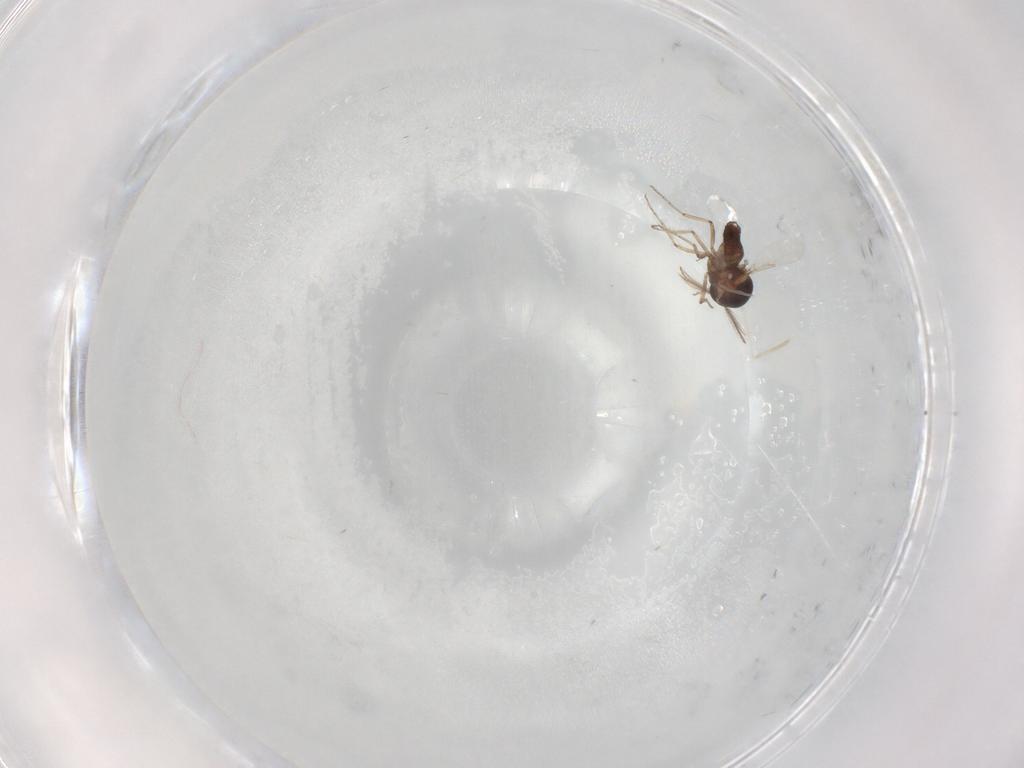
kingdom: Animalia
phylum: Arthropoda
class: Insecta
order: Diptera
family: Ceratopogonidae
